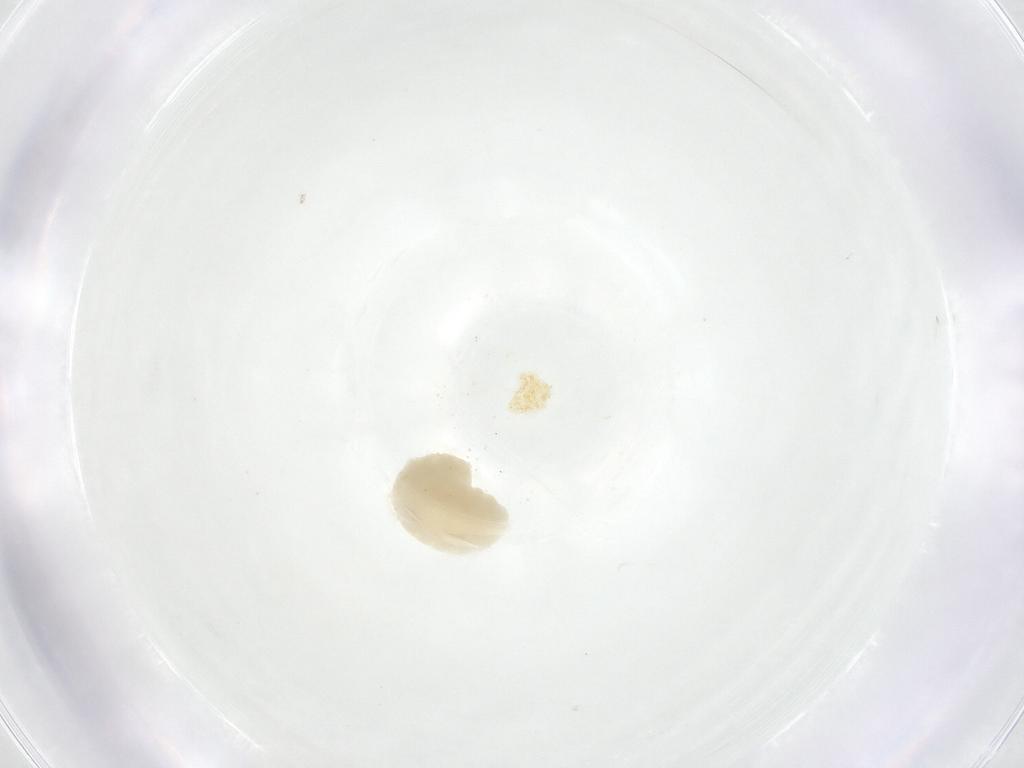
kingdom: Animalia
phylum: Arthropoda
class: Insecta
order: Diptera
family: Fergusoninidae
